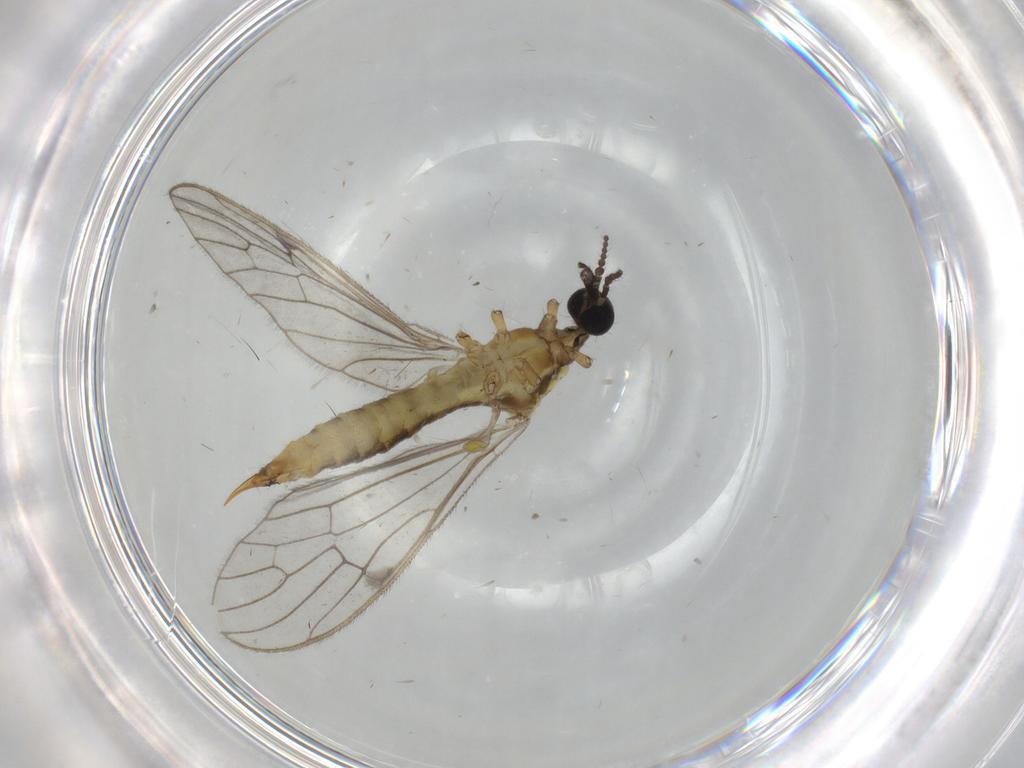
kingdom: Animalia
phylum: Arthropoda
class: Insecta
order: Diptera
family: Limoniidae
